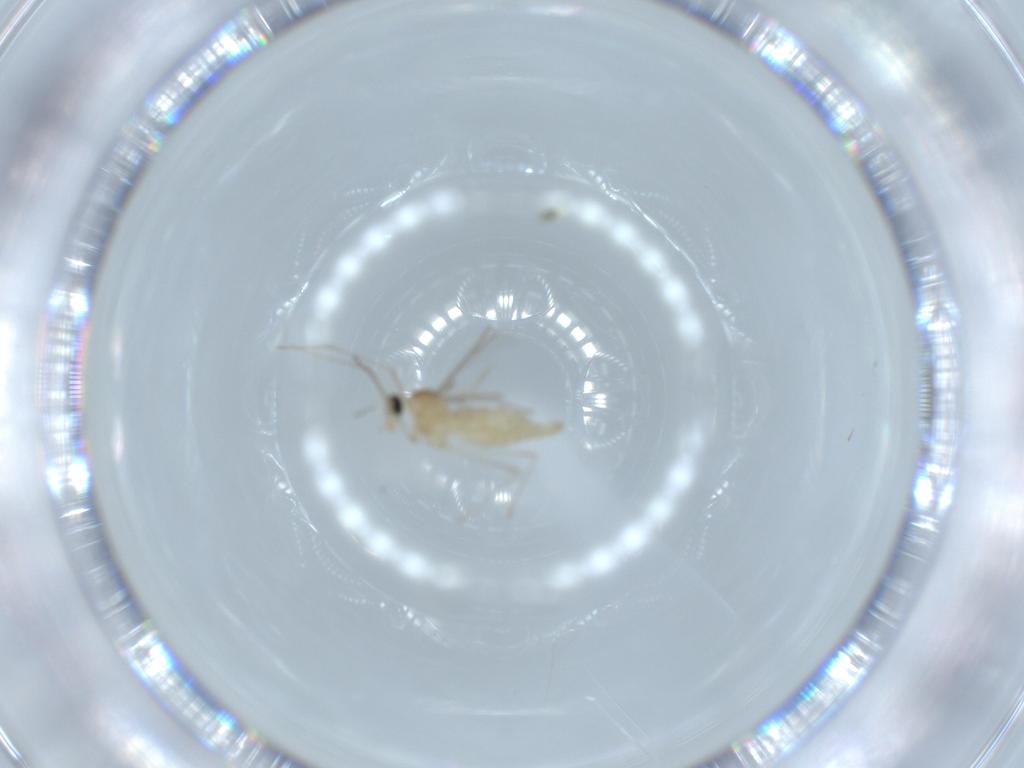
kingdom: Animalia
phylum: Arthropoda
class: Insecta
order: Diptera
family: Cecidomyiidae
